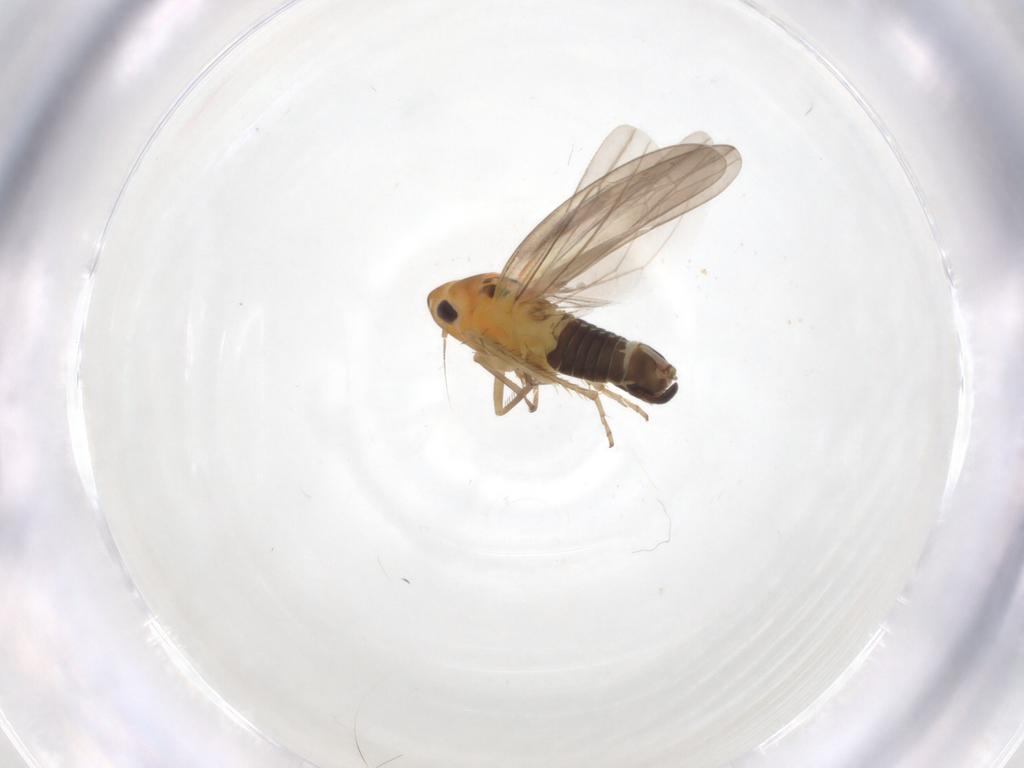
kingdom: Animalia
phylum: Arthropoda
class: Insecta
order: Hemiptera
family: Cicadellidae
